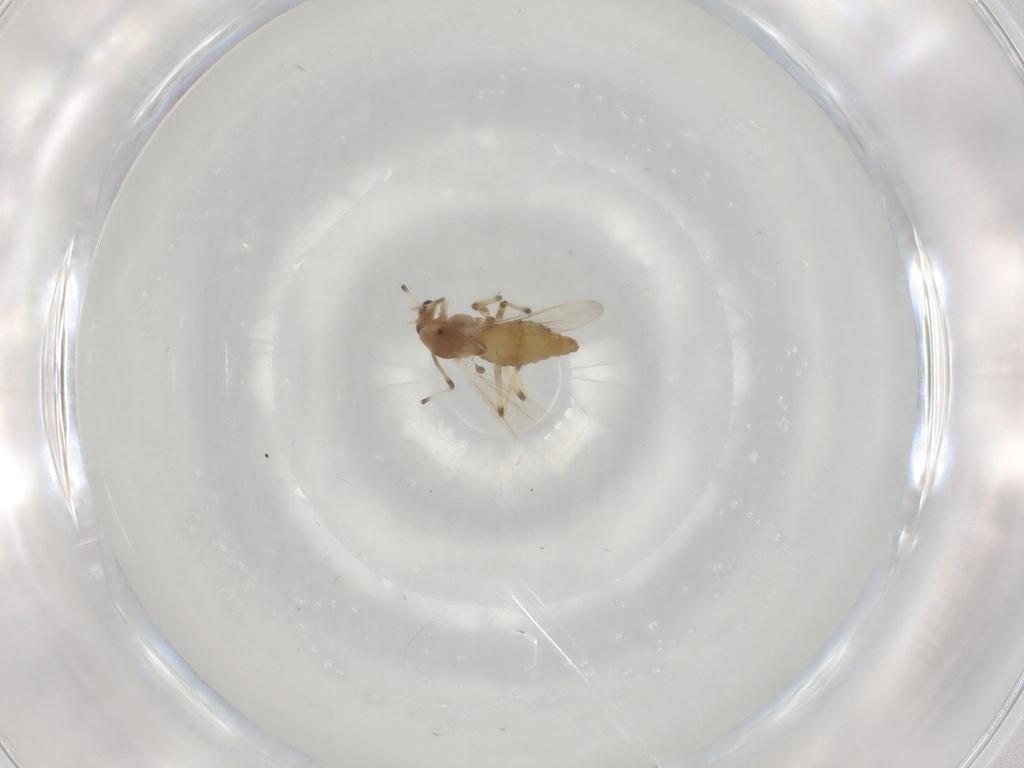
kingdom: Animalia
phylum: Arthropoda
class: Insecta
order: Diptera
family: Chironomidae
